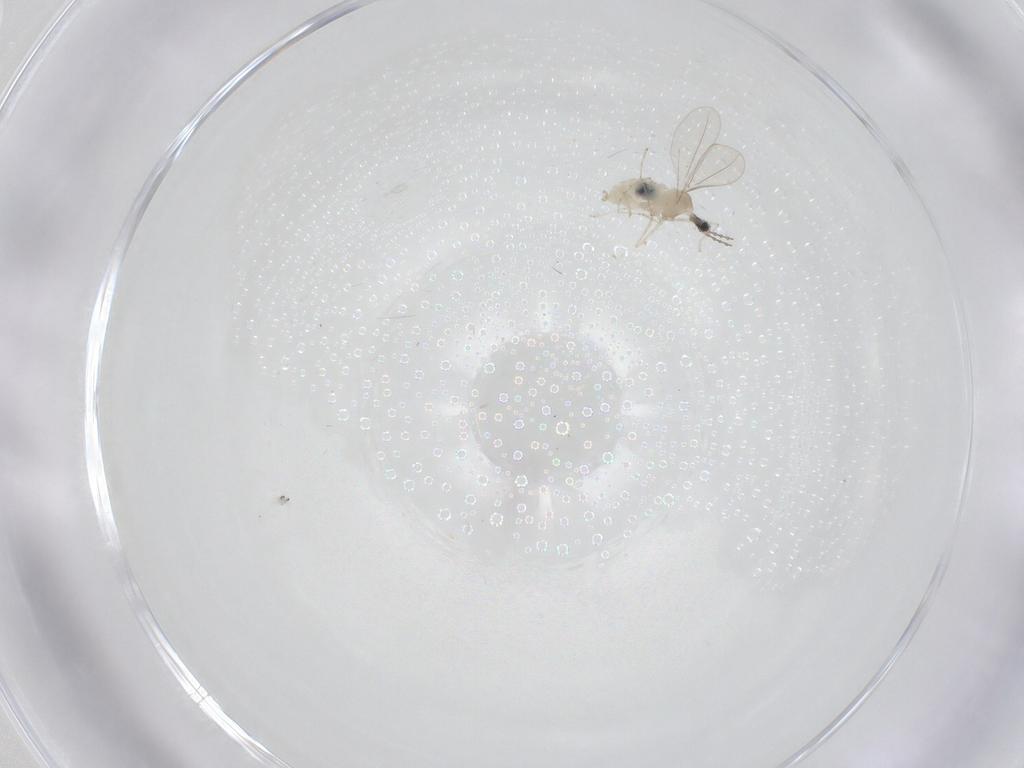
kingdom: Animalia
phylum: Arthropoda
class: Insecta
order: Diptera
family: Cecidomyiidae
